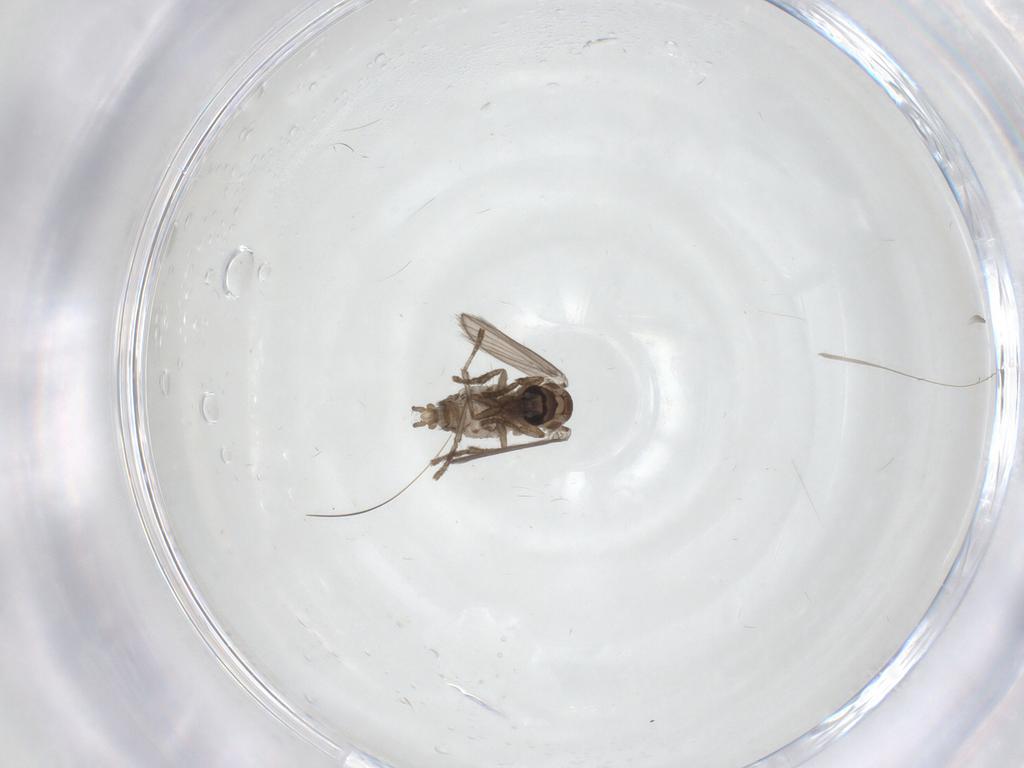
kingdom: Animalia
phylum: Arthropoda
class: Insecta
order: Diptera
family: Psychodidae
